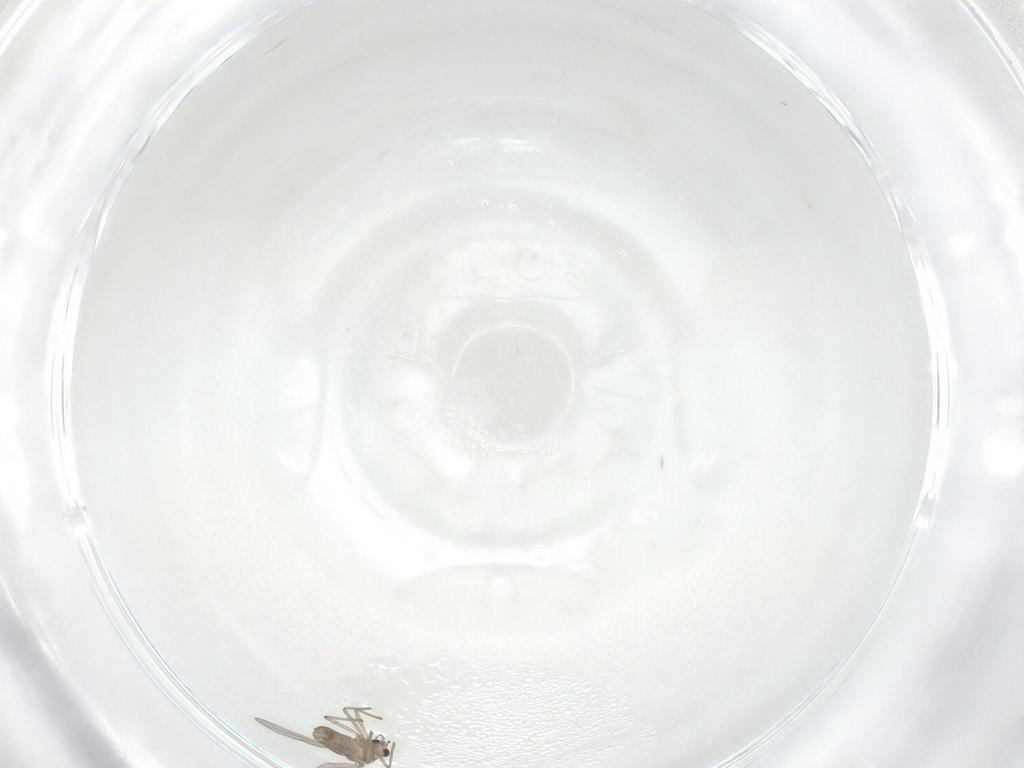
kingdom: Animalia
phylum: Arthropoda
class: Insecta
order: Diptera
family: Chironomidae
